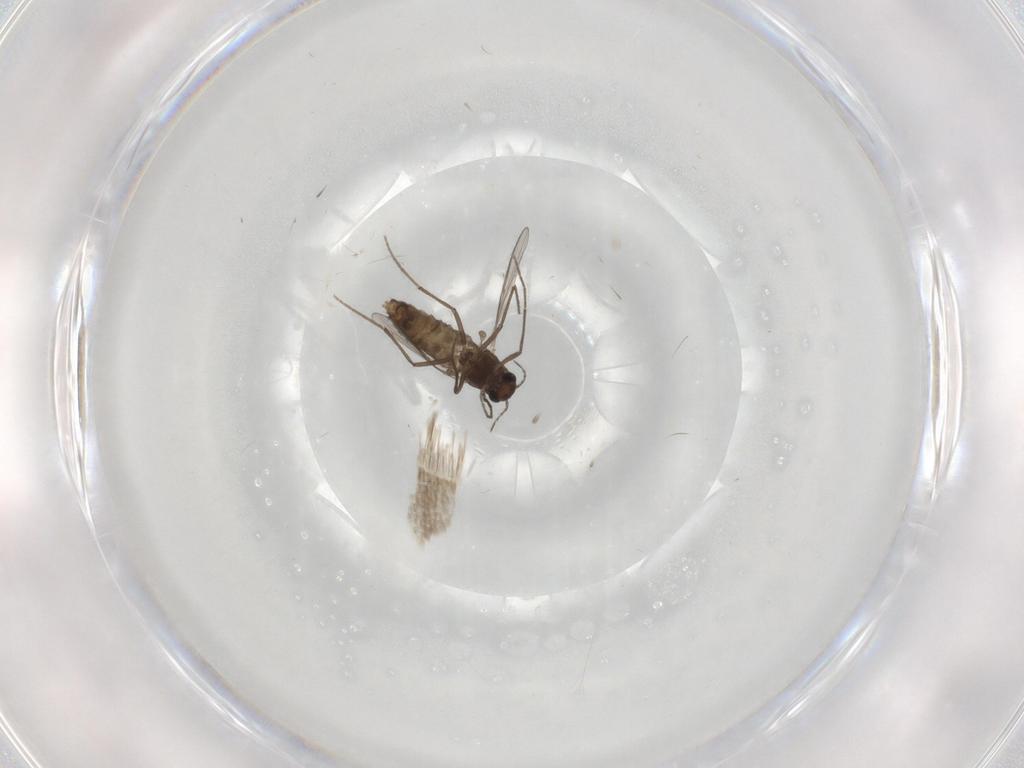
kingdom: Animalia
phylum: Arthropoda
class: Insecta
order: Diptera
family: Chironomidae
